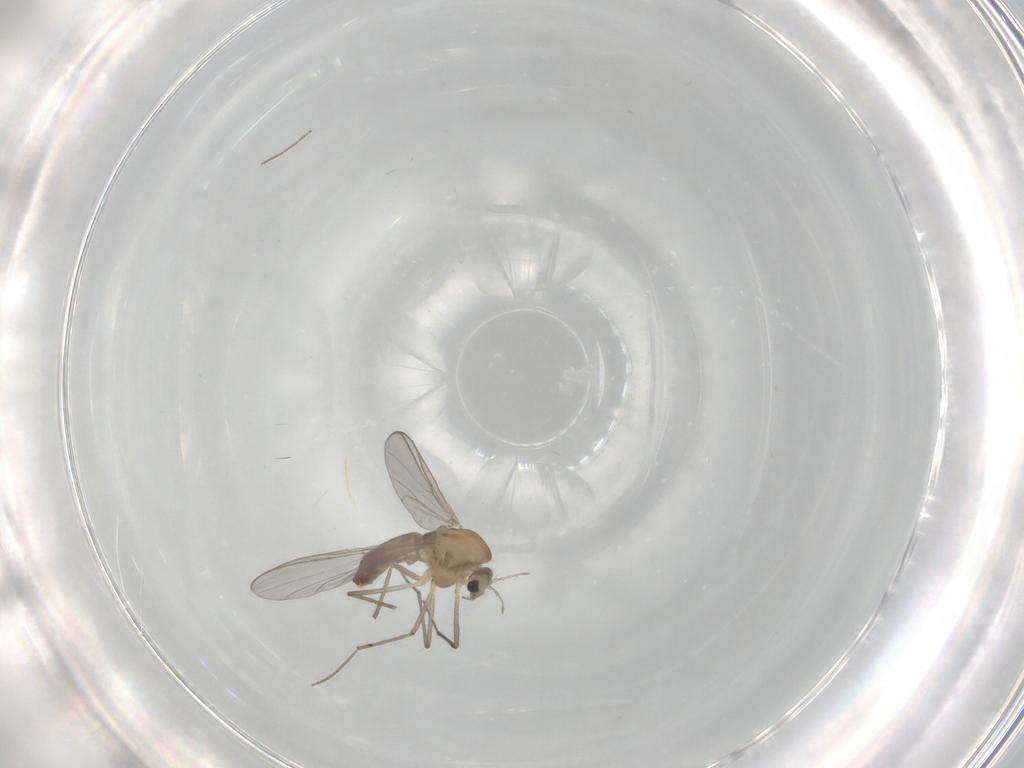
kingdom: Animalia
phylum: Arthropoda
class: Insecta
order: Diptera
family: Chironomidae
